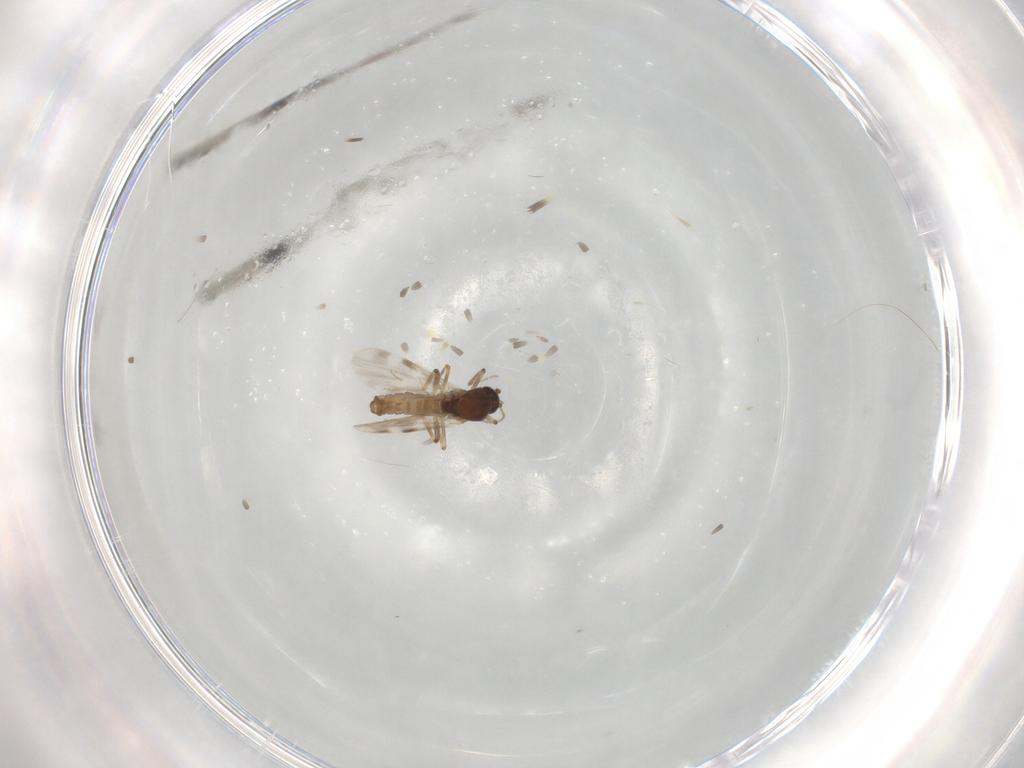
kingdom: Animalia
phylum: Arthropoda
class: Insecta
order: Diptera
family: Ceratopogonidae
